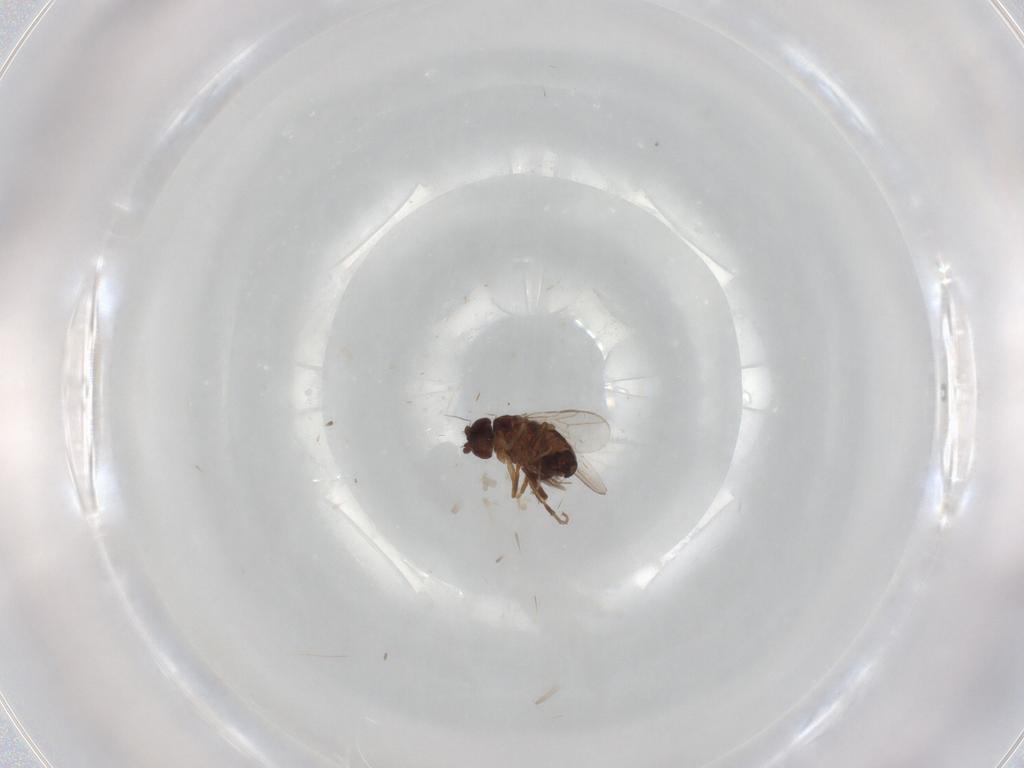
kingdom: Animalia
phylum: Arthropoda
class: Insecta
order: Diptera
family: Sphaeroceridae
